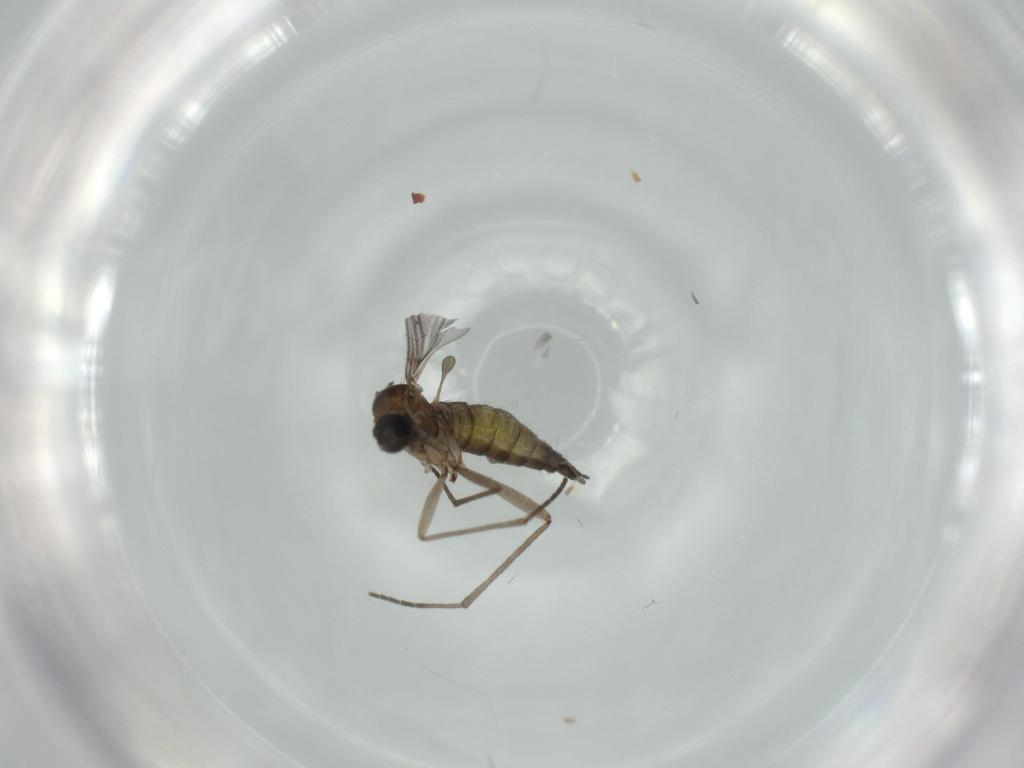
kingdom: Animalia
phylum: Arthropoda
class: Insecta
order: Diptera
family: Sciaridae
